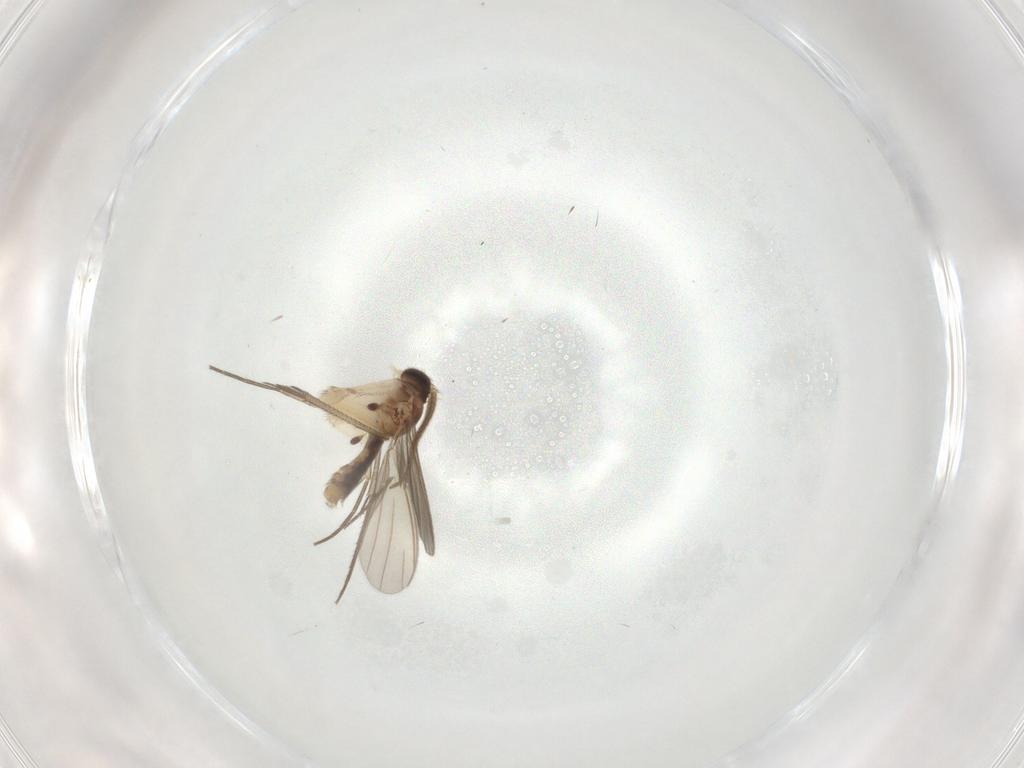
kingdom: Animalia
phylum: Arthropoda
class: Insecta
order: Diptera
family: Mycetophilidae
